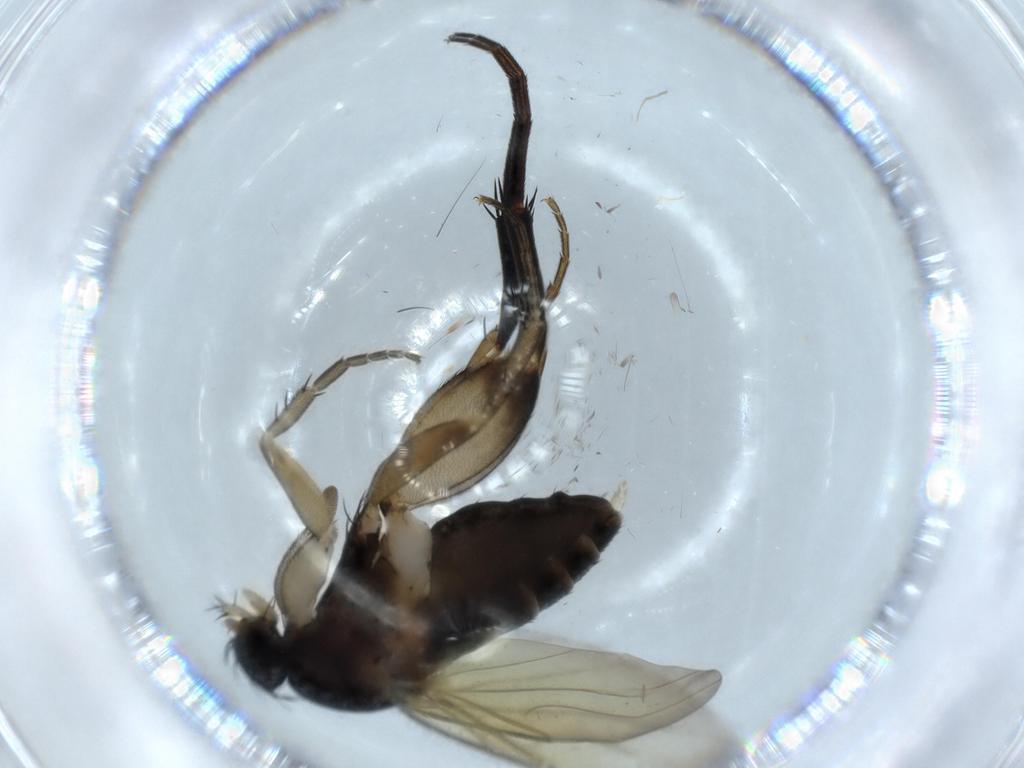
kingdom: Animalia
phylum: Arthropoda
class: Insecta
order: Diptera
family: Phoridae
